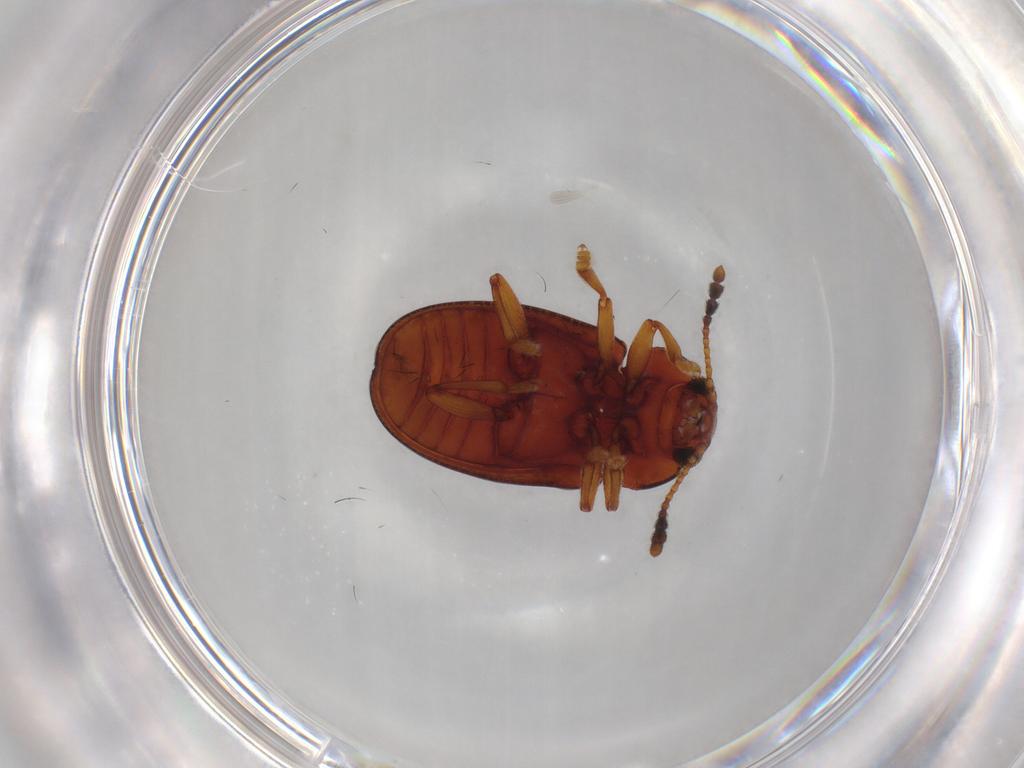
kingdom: Animalia
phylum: Arthropoda
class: Insecta
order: Coleoptera
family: Erotylidae
